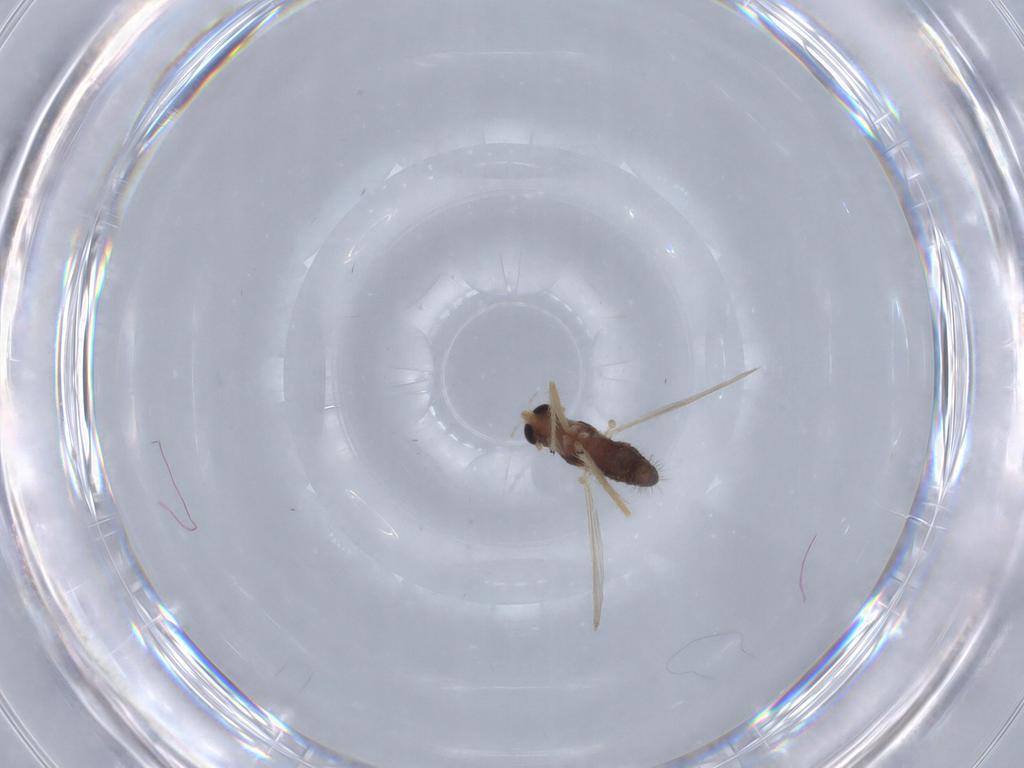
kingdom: Animalia
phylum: Arthropoda
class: Insecta
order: Diptera
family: Chironomidae
